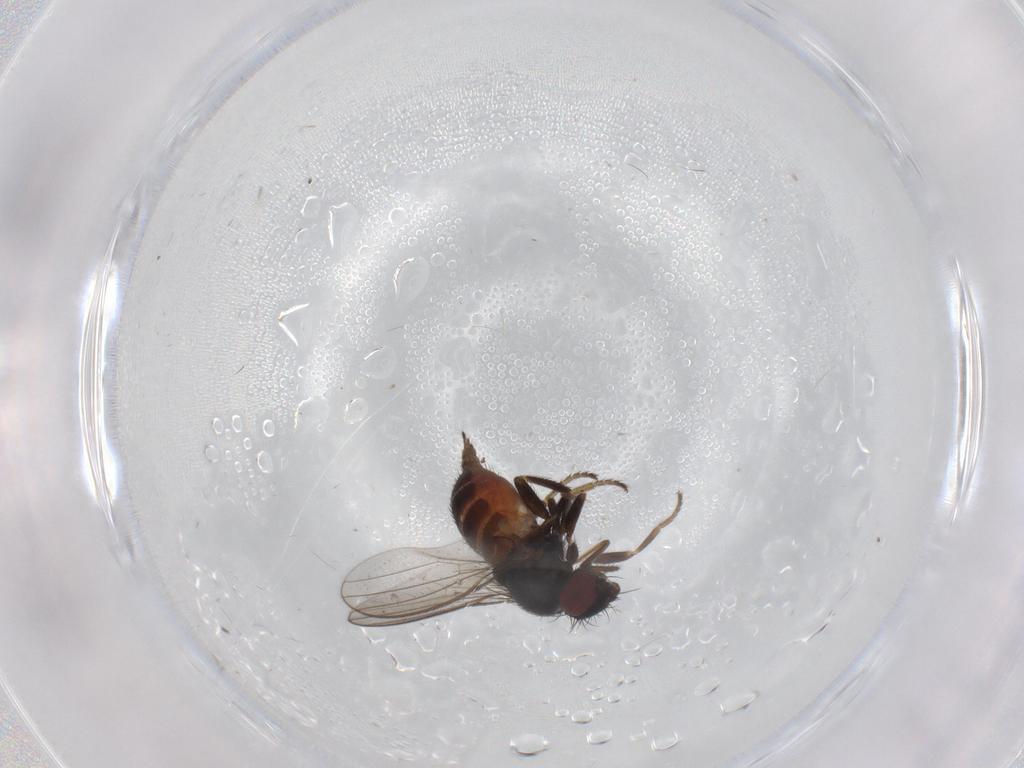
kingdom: Animalia
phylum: Arthropoda
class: Insecta
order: Diptera
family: Milichiidae
